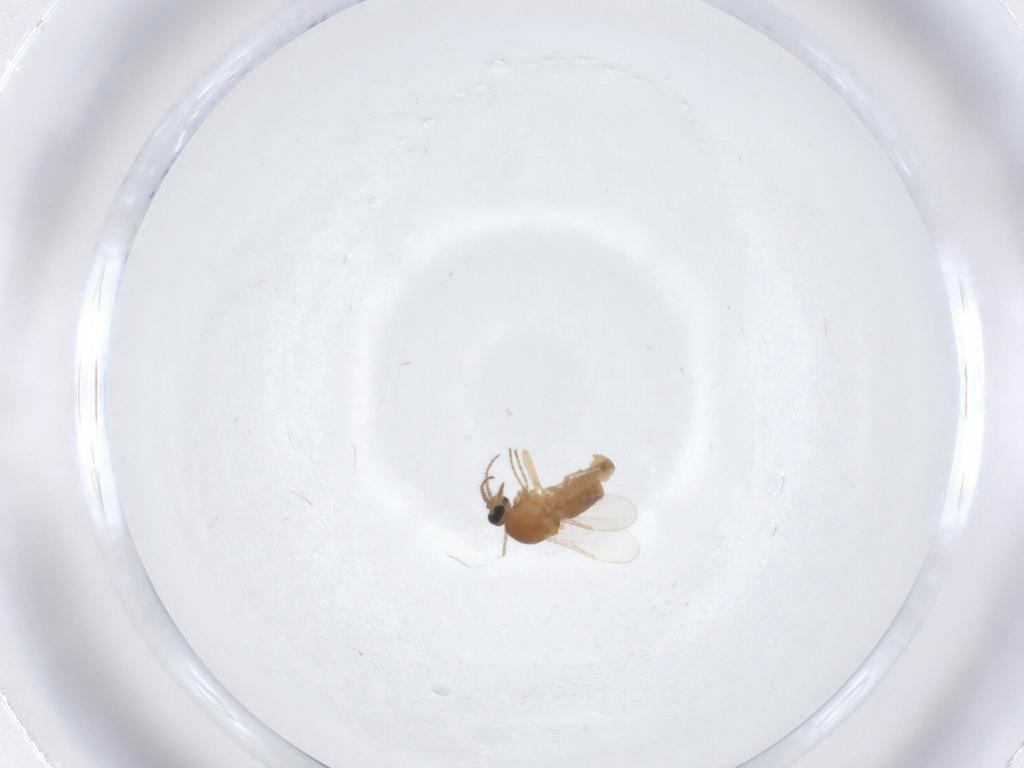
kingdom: Animalia
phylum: Arthropoda
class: Insecta
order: Diptera
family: Ceratopogonidae
